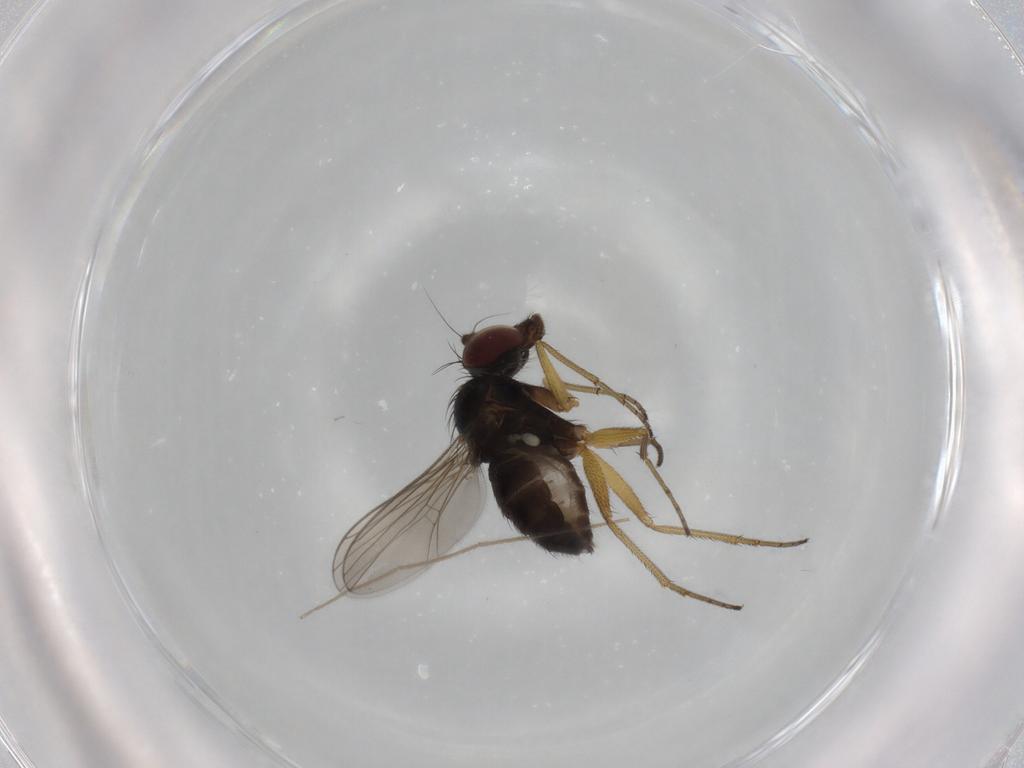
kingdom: Animalia
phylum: Arthropoda
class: Insecta
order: Diptera
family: Dolichopodidae
